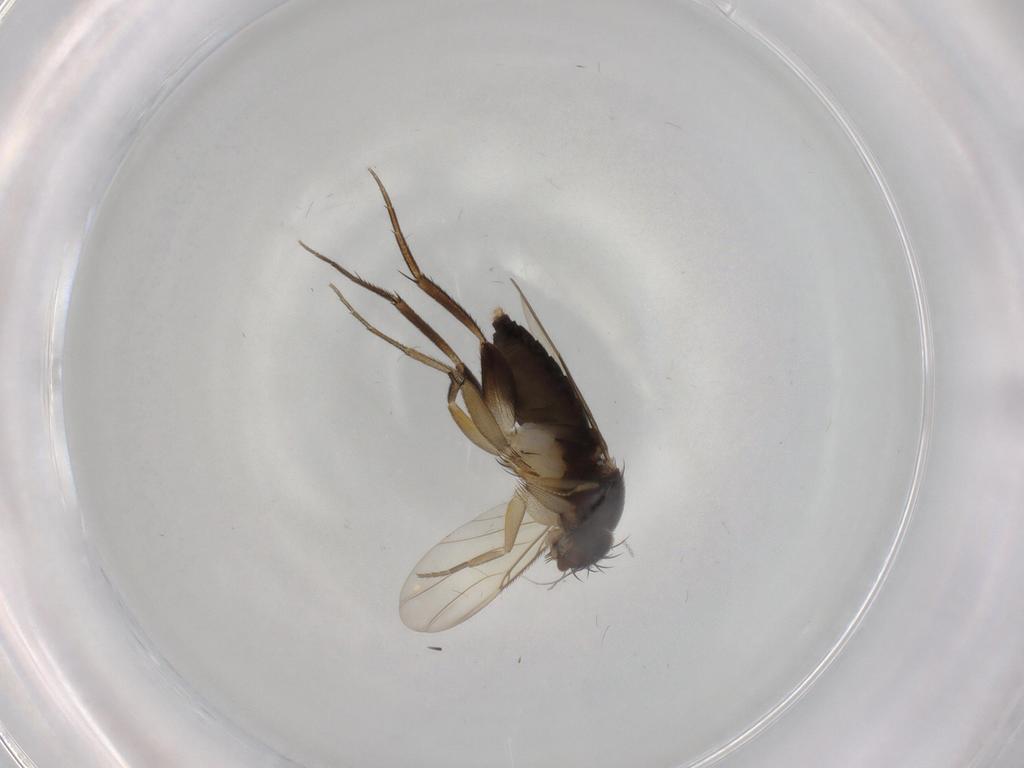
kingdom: Animalia
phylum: Arthropoda
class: Insecta
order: Diptera
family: Phoridae
